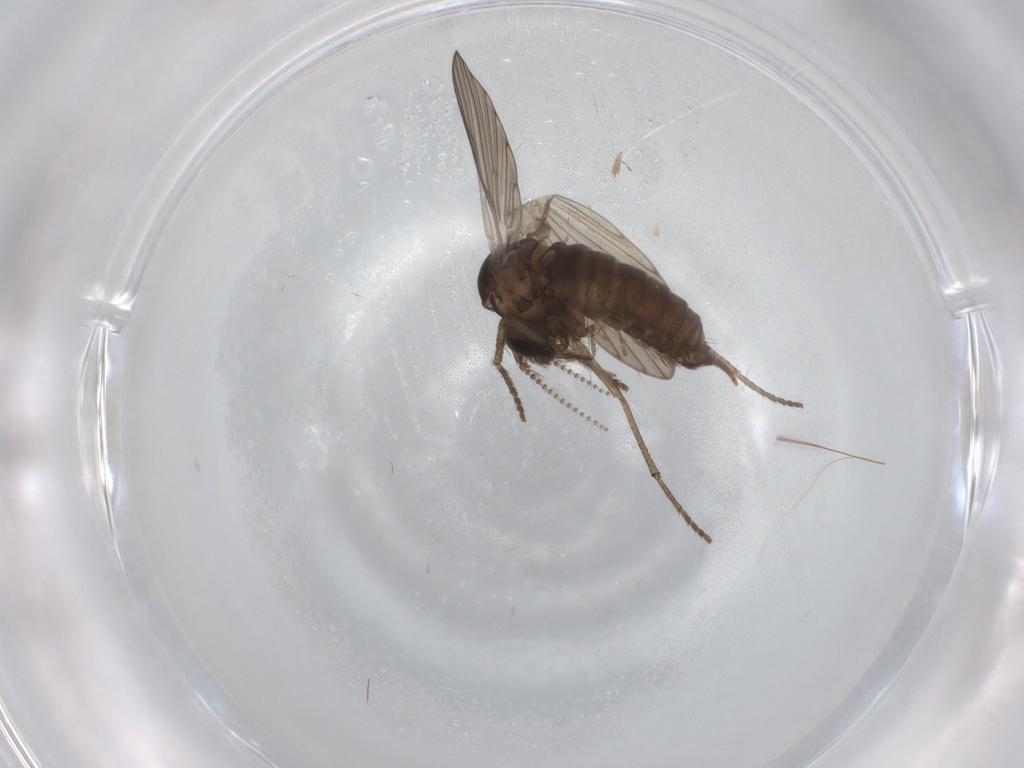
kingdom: Animalia
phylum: Arthropoda
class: Insecta
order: Diptera
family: Psychodidae
